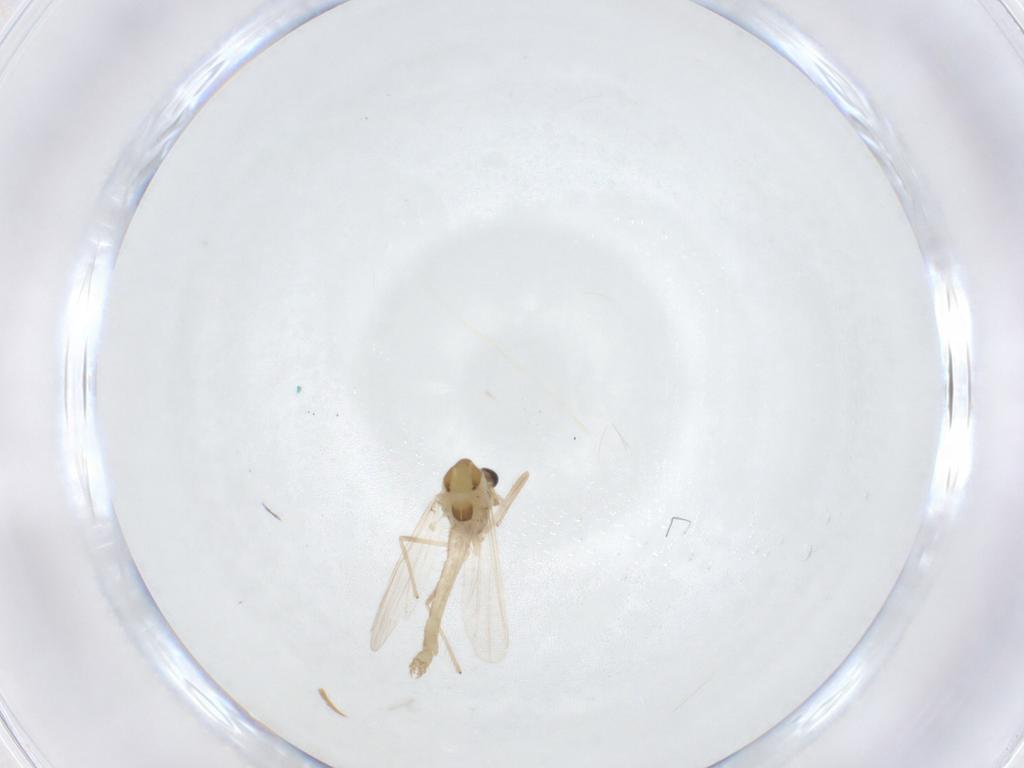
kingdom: Animalia
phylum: Arthropoda
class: Insecta
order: Diptera
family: Chironomidae
